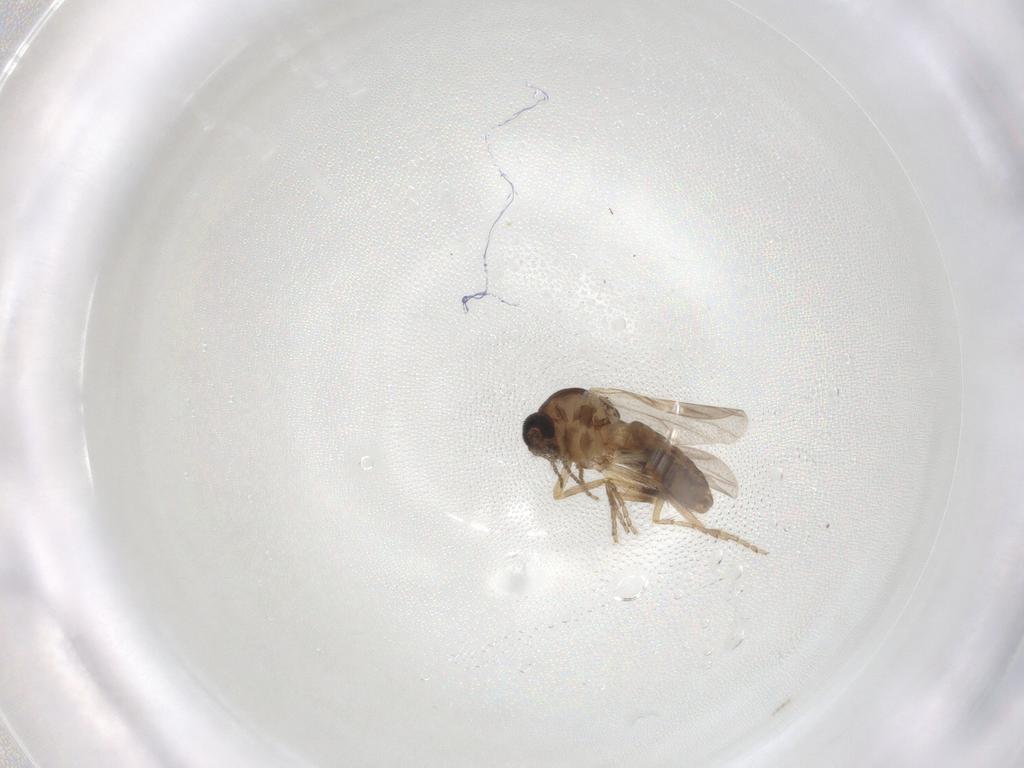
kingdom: Animalia
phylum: Arthropoda
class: Insecta
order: Diptera
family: Ceratopogonidae
